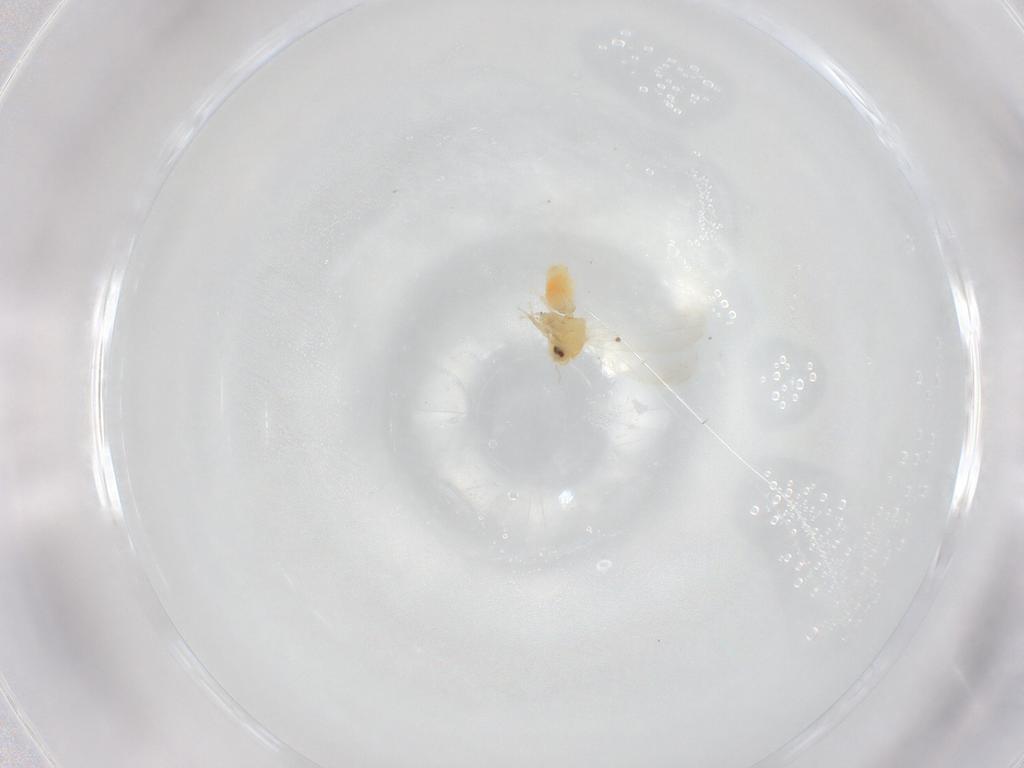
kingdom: Animalia
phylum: Arthropoda
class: Insecta
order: Hemiptera
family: Aleyrodidae
